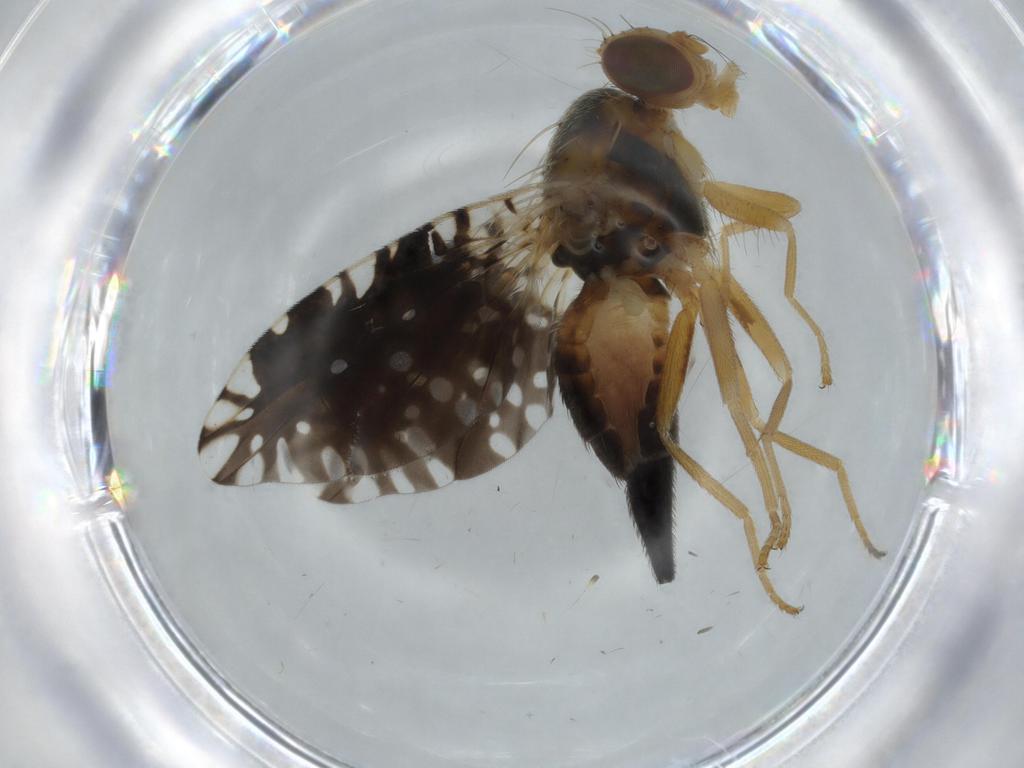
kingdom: Animalia
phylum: Arthropoda
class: Insecta
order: Diptera
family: Tephritidae
